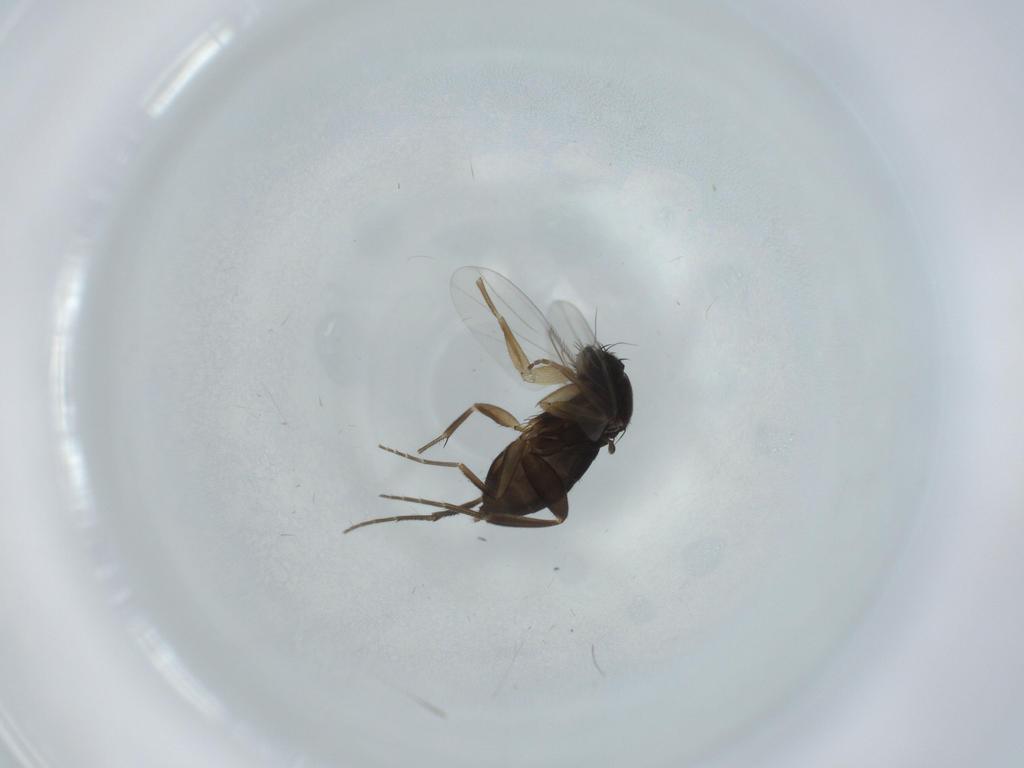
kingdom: Animalia
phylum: Arthropoda
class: Insecta
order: Diptera
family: Phoridae
